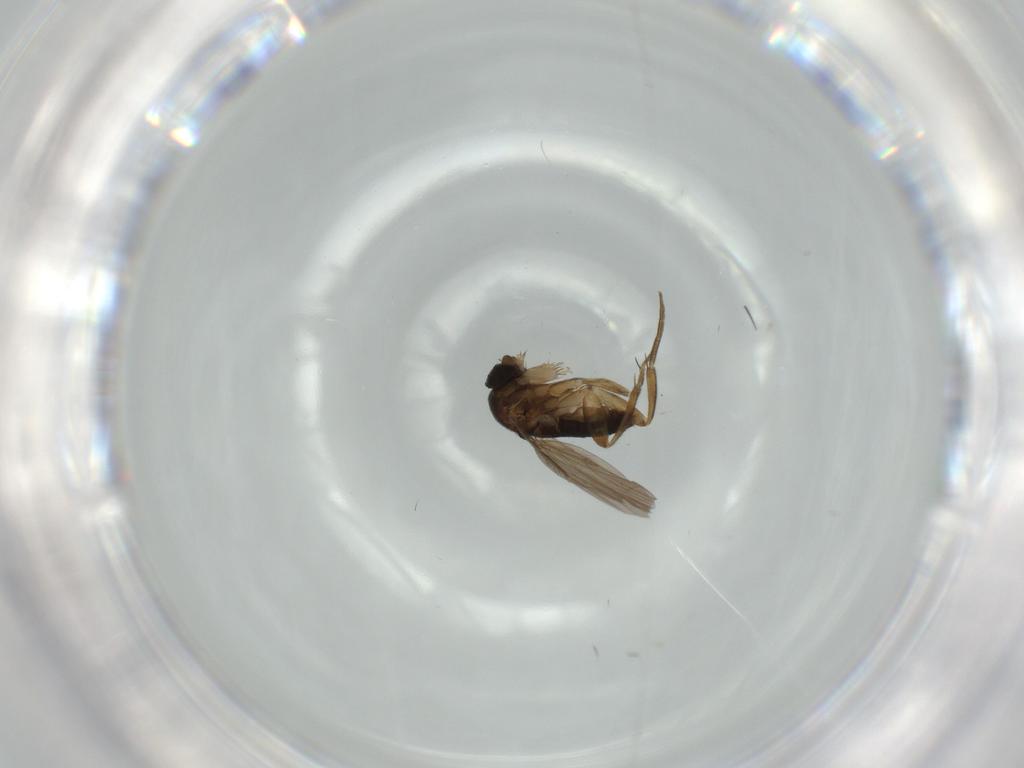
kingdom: Animalia
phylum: Arthropoda
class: Insecta
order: Diptera
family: Phoridae
